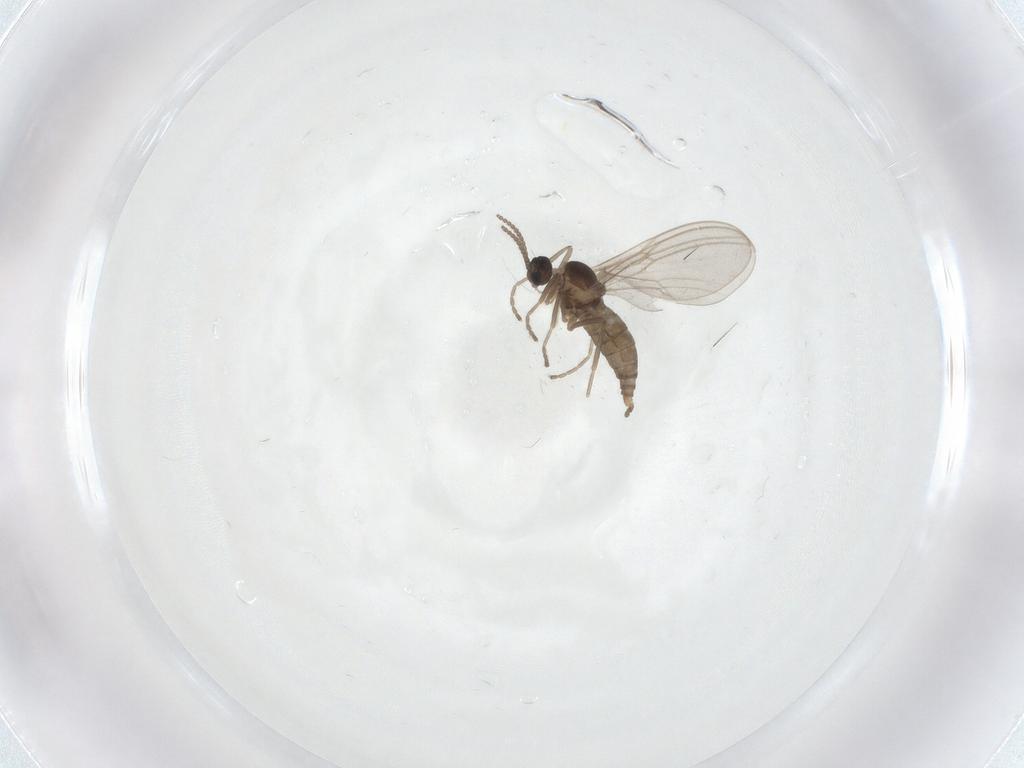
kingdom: Animalia
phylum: Arthropoda
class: Insecta
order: Diptera
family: Cecidomyiidae
